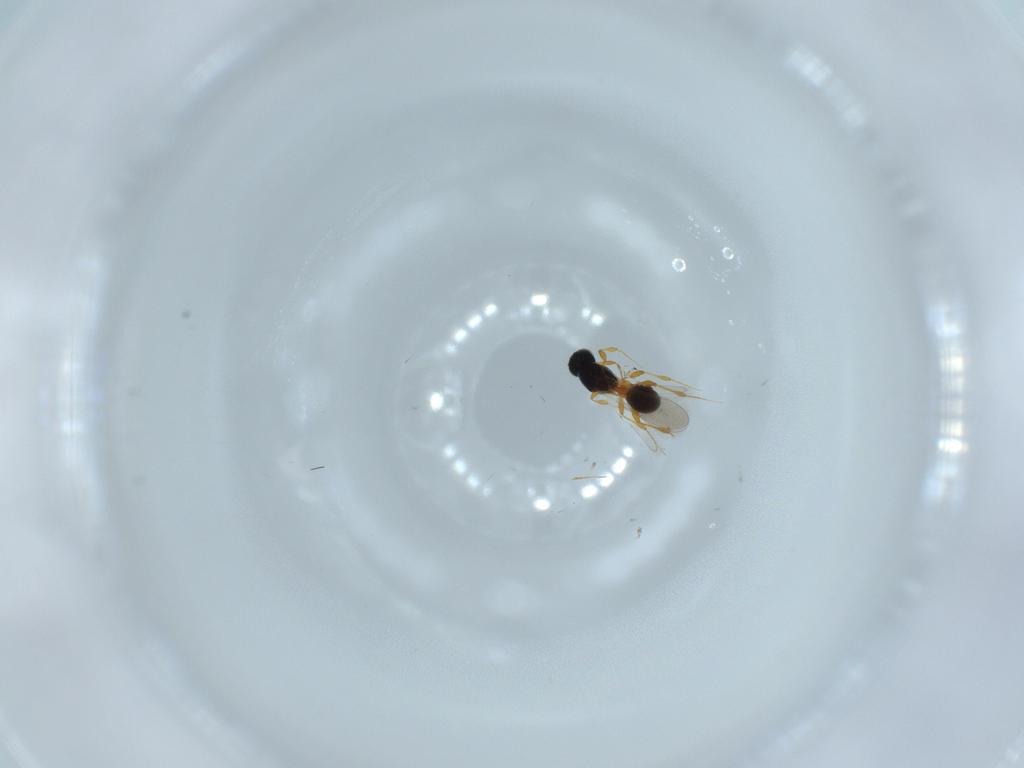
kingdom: Animalia
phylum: Arthropoda
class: Insecta
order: Hymenoptera
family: Platygastridae
